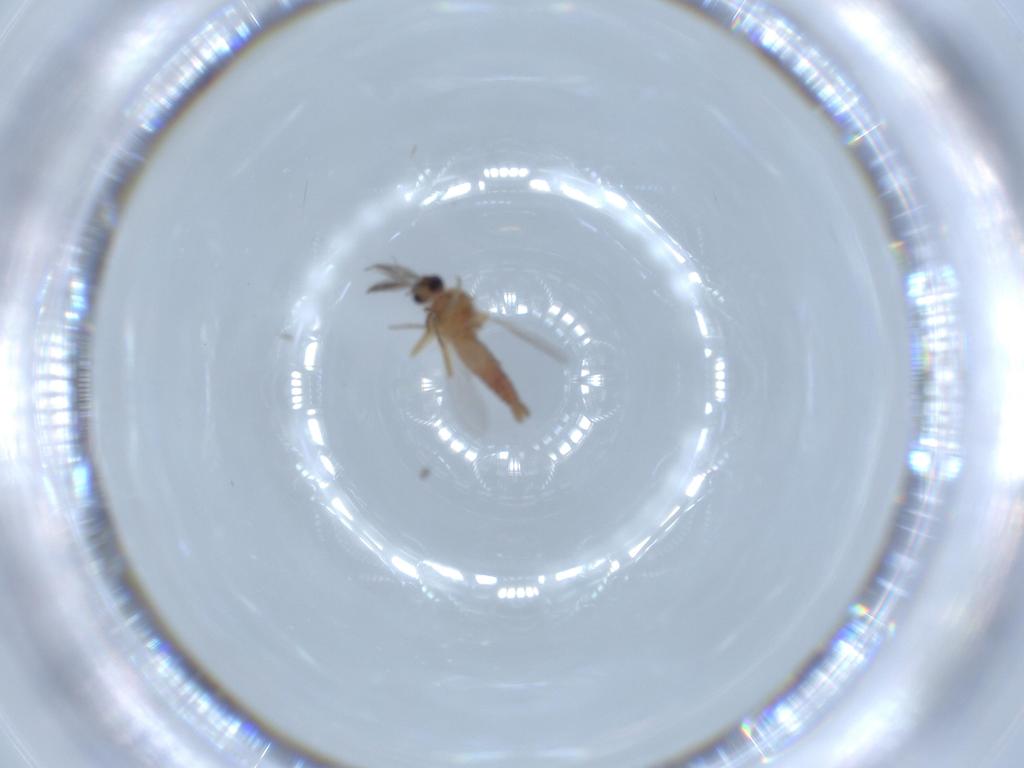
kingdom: Animalia
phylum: Arthropoda
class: Insecta
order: Diptera
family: Ceratopogonidae
